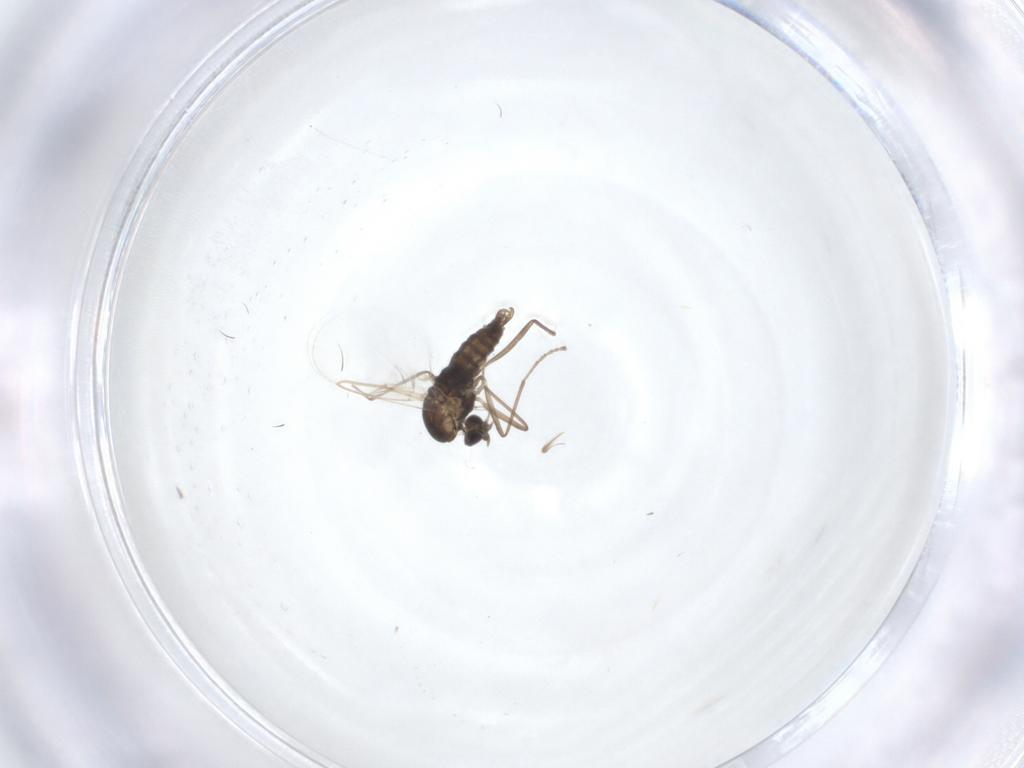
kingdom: Animalia
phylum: Arthropoda
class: Insecta
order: Diptera
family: Cecidomyiidae
